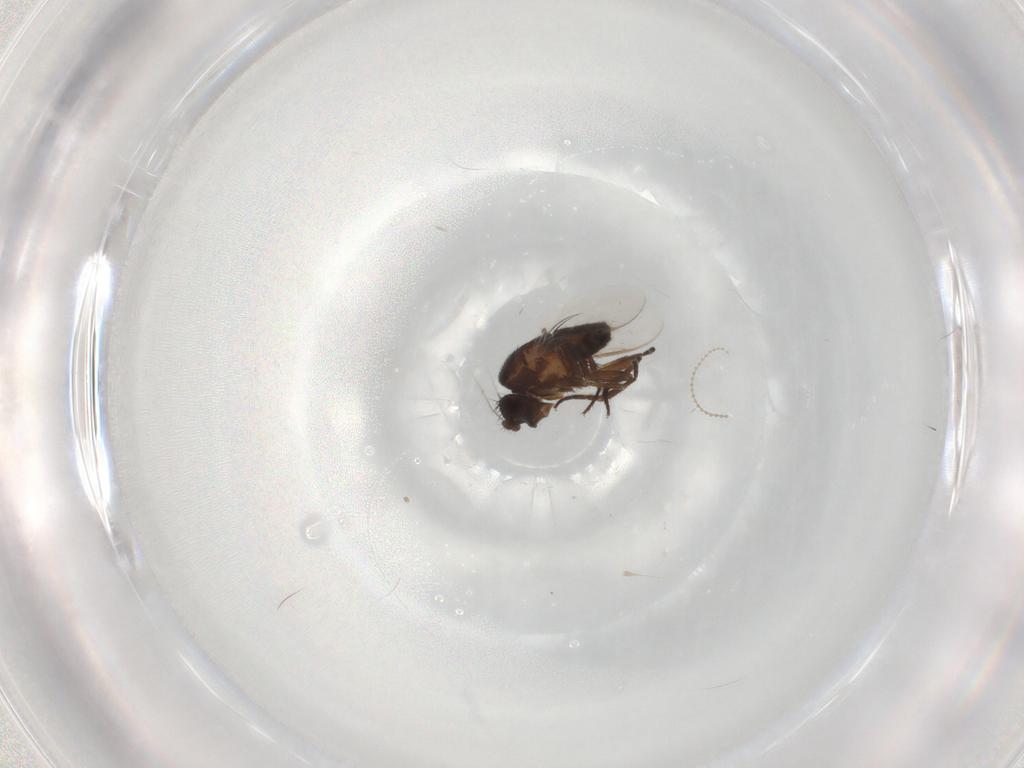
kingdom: Animalia
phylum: Arthropoda
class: Insecta
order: Diptera
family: Sphaeroceridae
